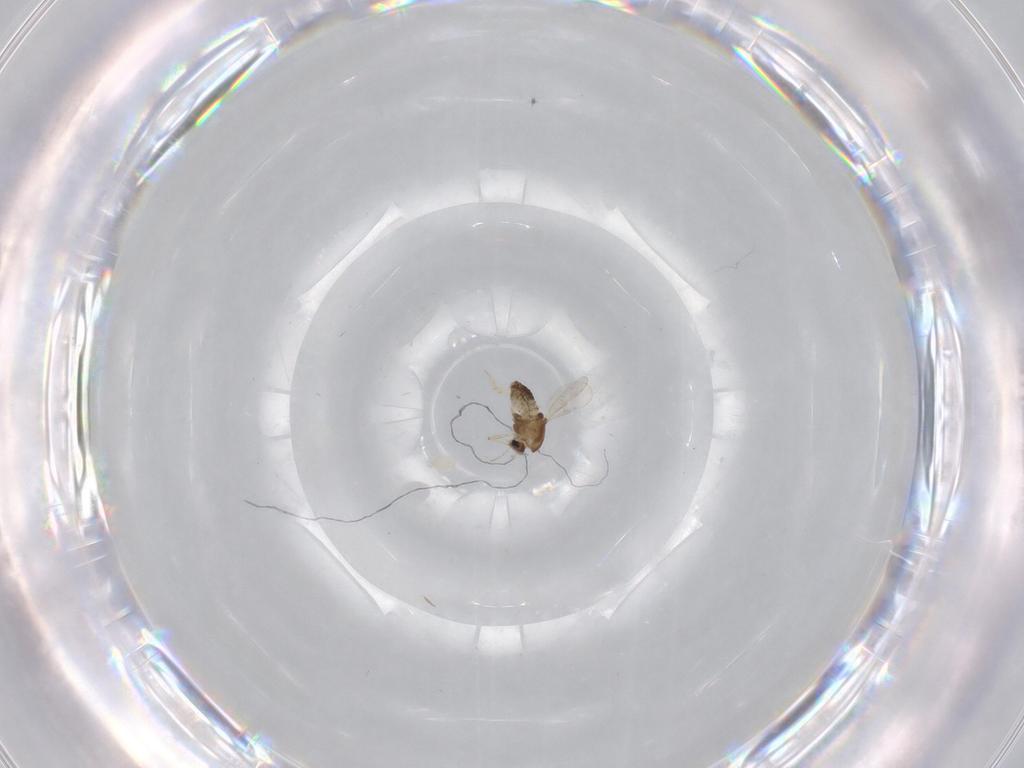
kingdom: Animalia
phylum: Arthropoda
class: Insecta
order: Diptera
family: Chironomidae
